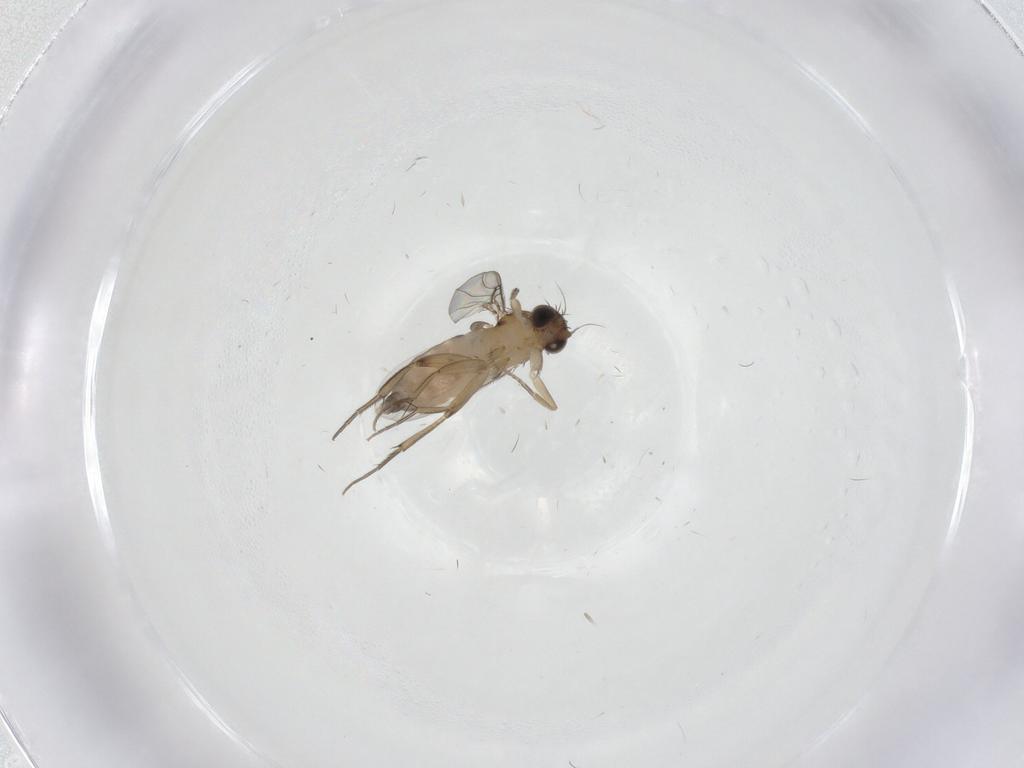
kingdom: Animalia
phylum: Arthropoda
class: Insecta
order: Diptera
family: Phoridae
